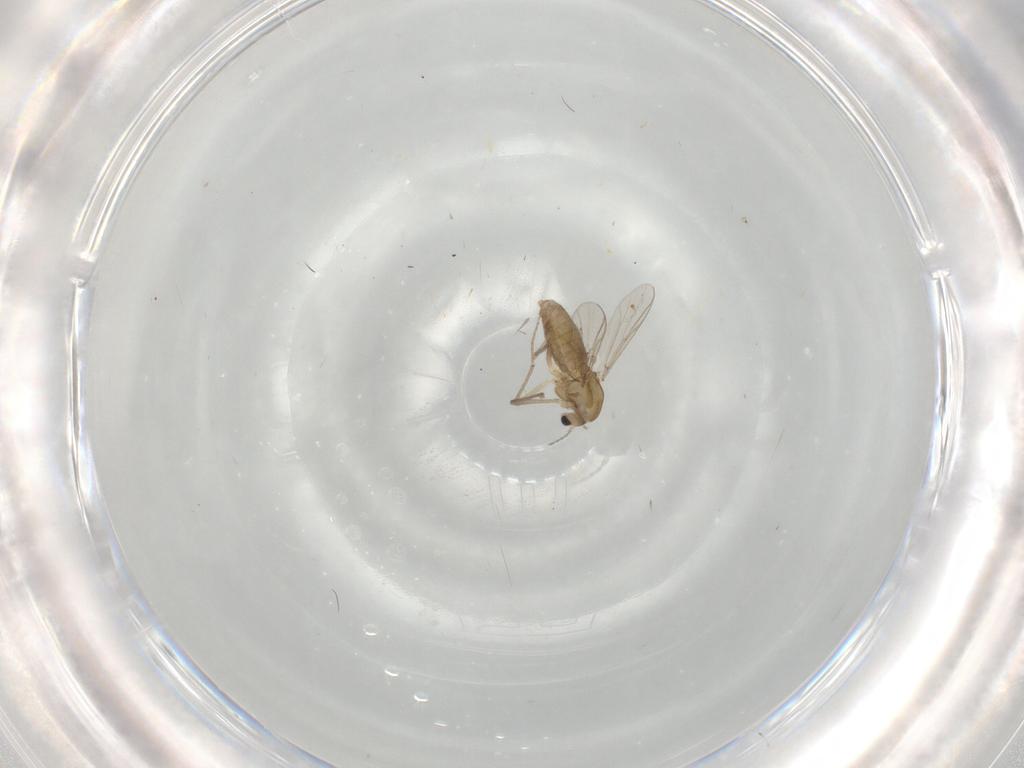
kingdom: Animalia
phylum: Arthropoda
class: Insecta
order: Diptera
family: Chironomidae
